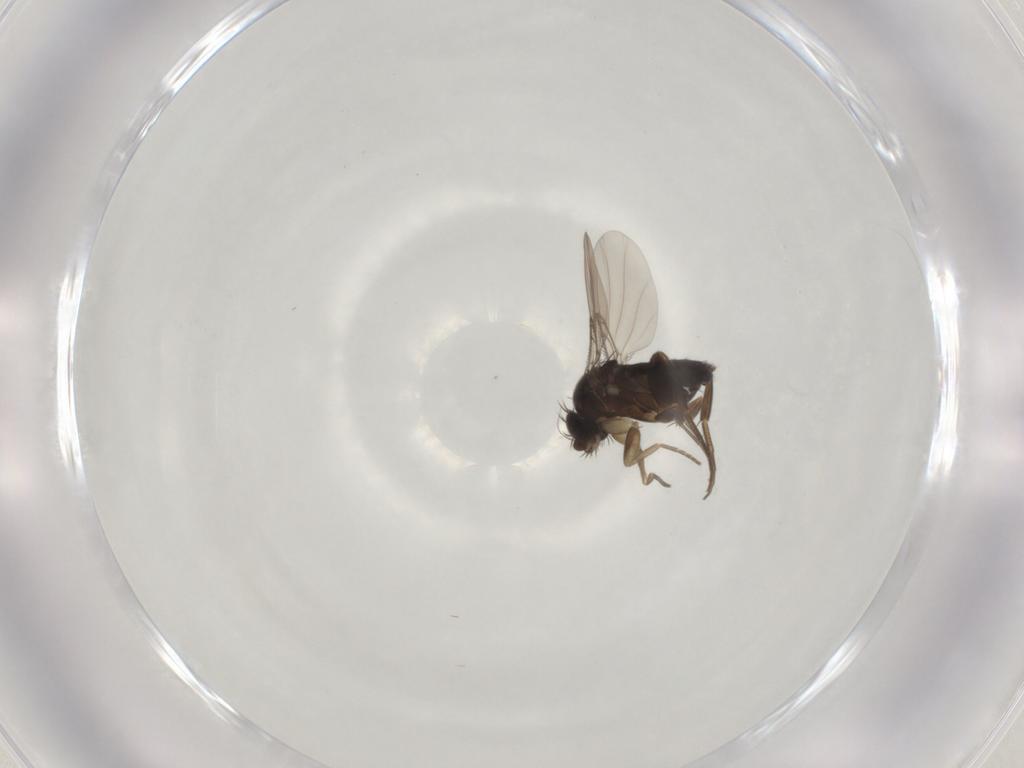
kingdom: Animalia
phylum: Arthropoda
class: Insecta
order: Diptera
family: Phoridae
